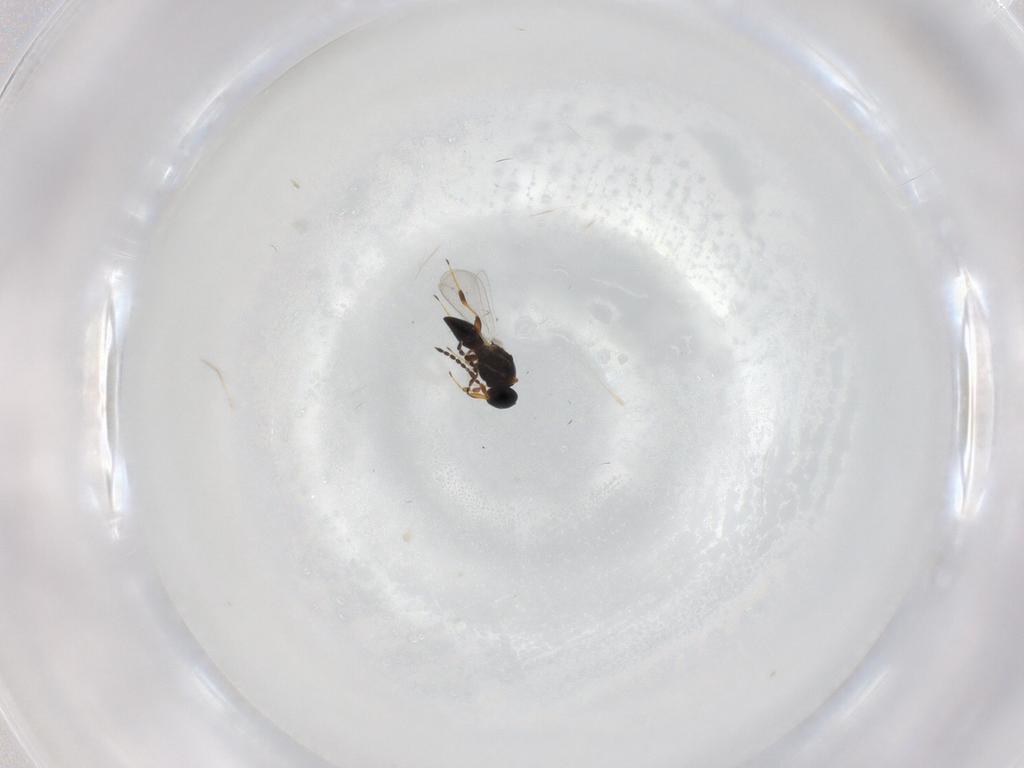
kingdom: Animalia
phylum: Arthropoda
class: Insecta
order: Hymenoptera
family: Platygastridae
